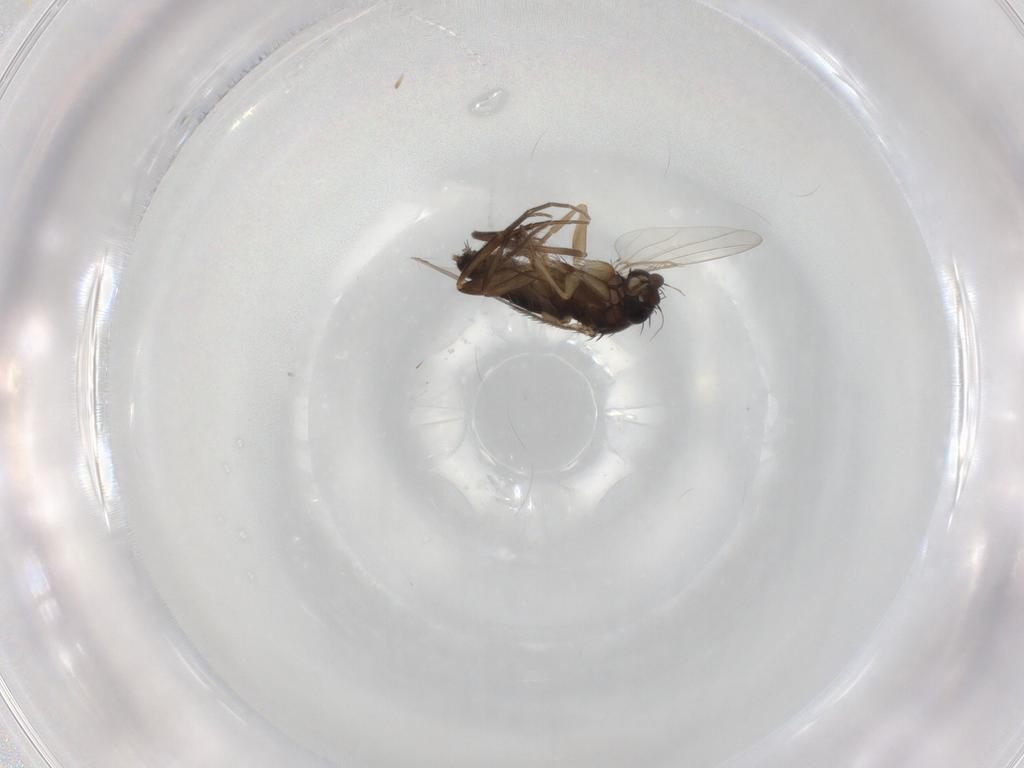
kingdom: Animalia
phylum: Arthropoda
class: Insecta
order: Diptera
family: Phoridae
